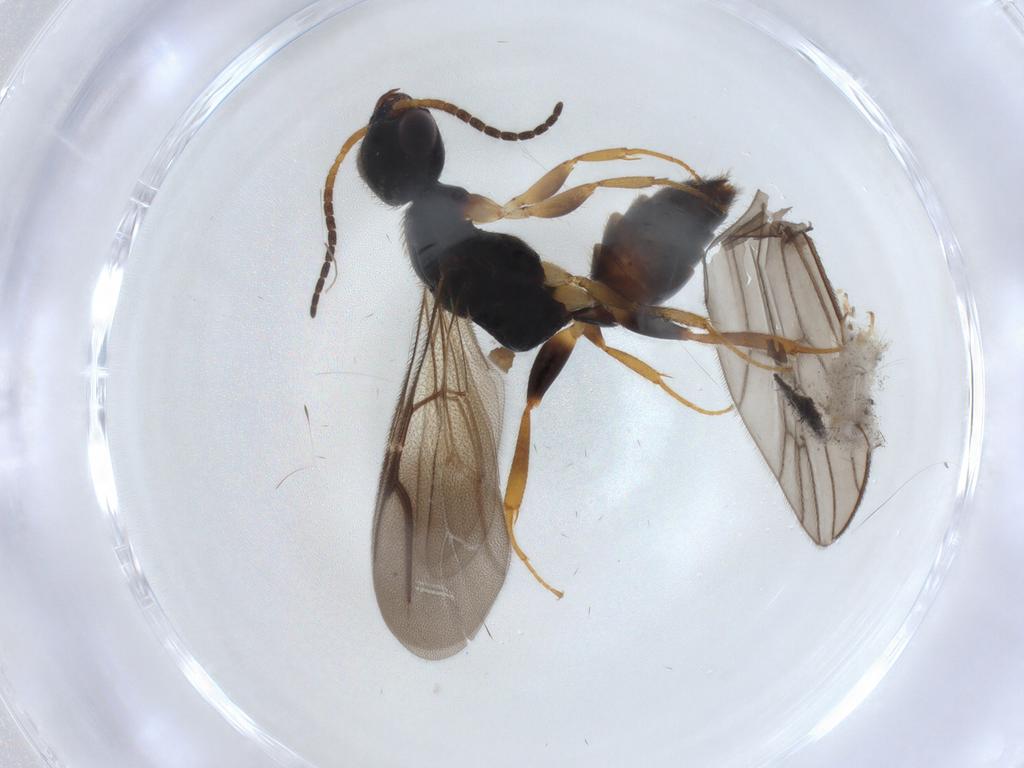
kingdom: Animalia
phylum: Arthropoda
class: Insecta
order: Hymenoptera
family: Bethylidae
